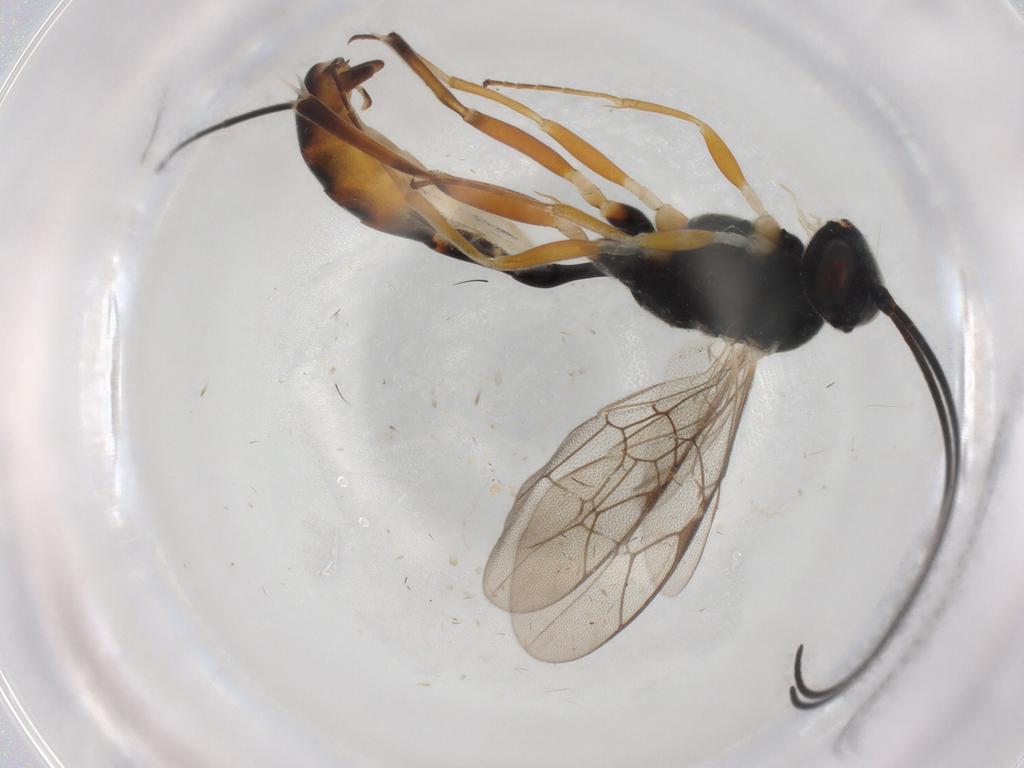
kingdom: Animalia
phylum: Arthropoda
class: Insecta
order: Hymenoptera
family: Ichneumonidae
